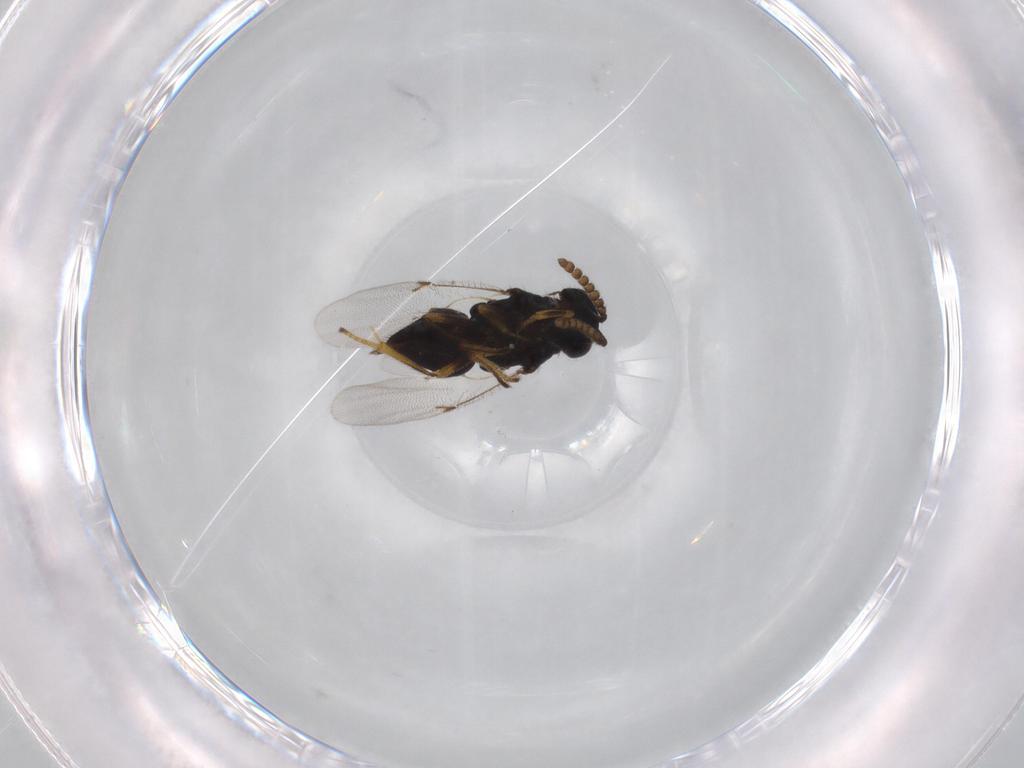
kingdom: Animalia
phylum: Arthropoda
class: Insecta
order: Hymenoptera
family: Encyrtidae
